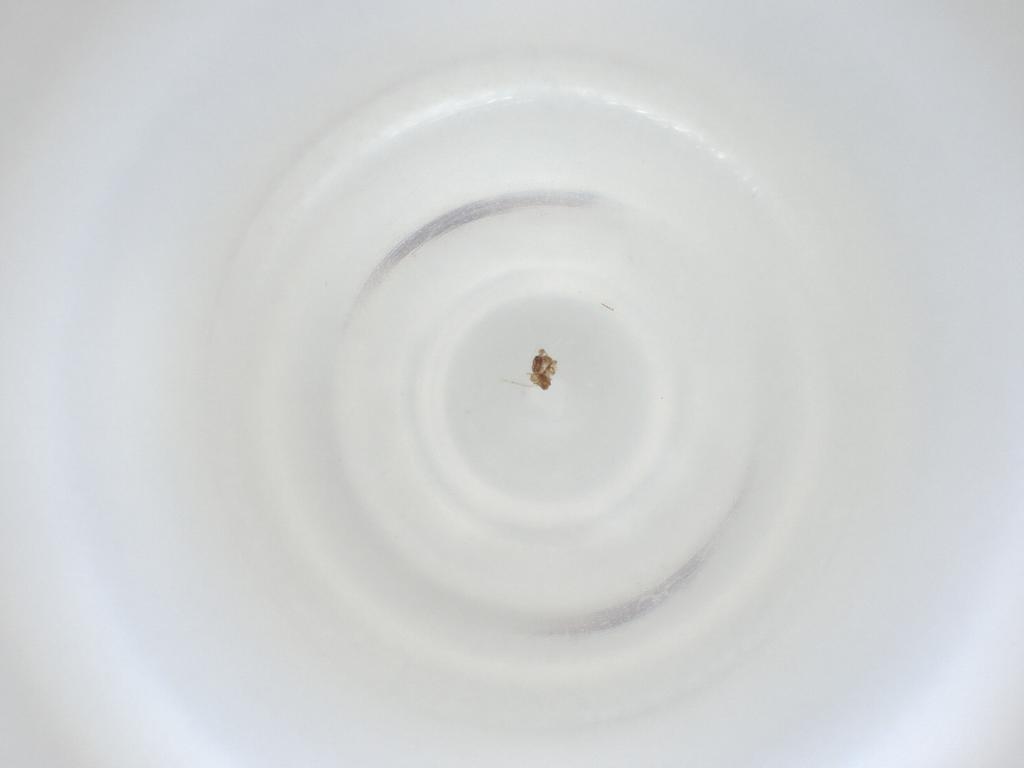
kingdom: Animalia
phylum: Arthropoda
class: Insecta
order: Diptera
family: Cecidomyiidae
